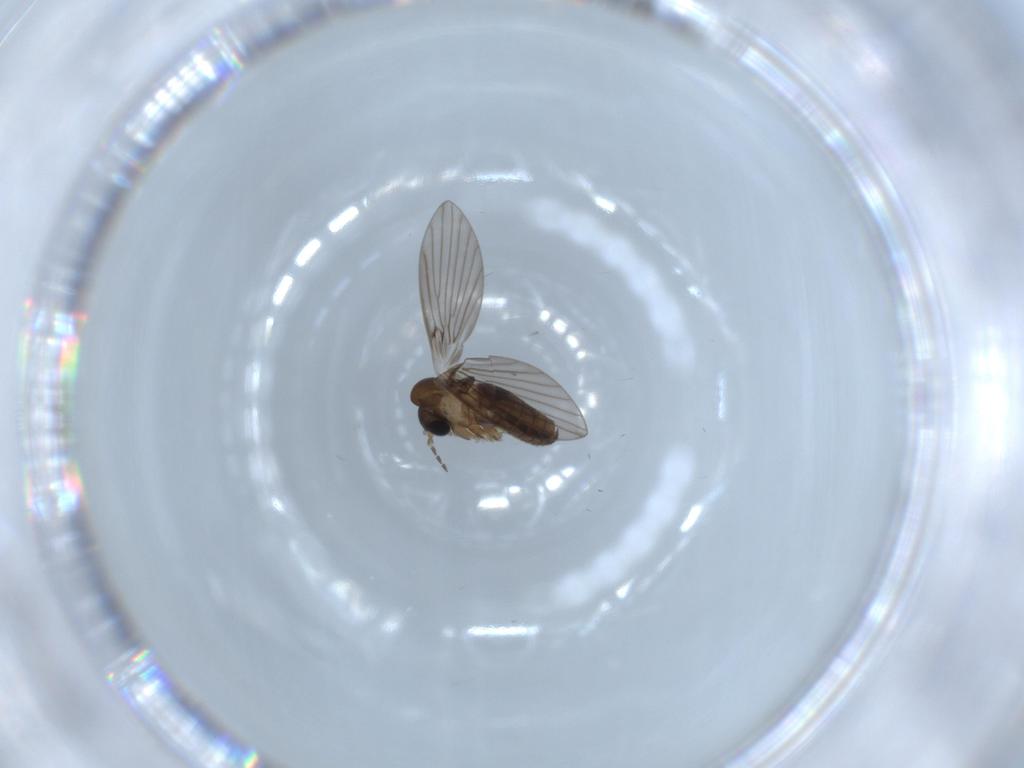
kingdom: Animalia
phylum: Arthropoda
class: Insecta
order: Diptera
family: Psychodidae
